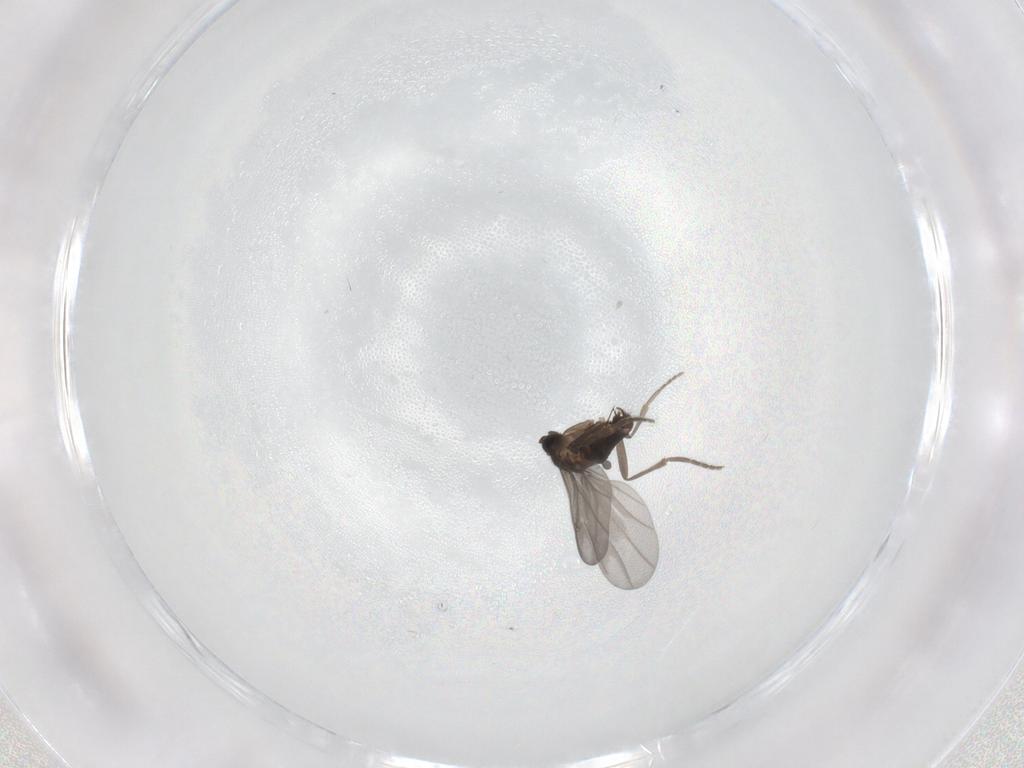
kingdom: Animalia
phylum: Arthropoda
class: Insecta
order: Diptera
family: Phoridae
